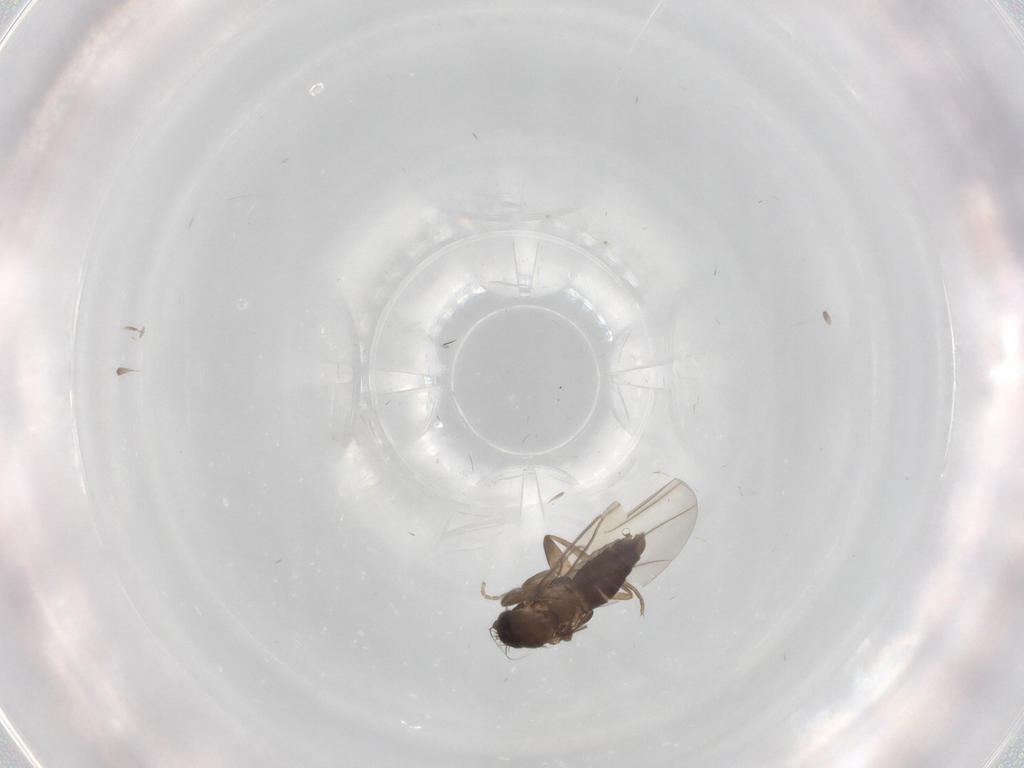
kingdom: Animalia
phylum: Arthropoda
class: Insecta
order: Diptera
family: Phoridae
